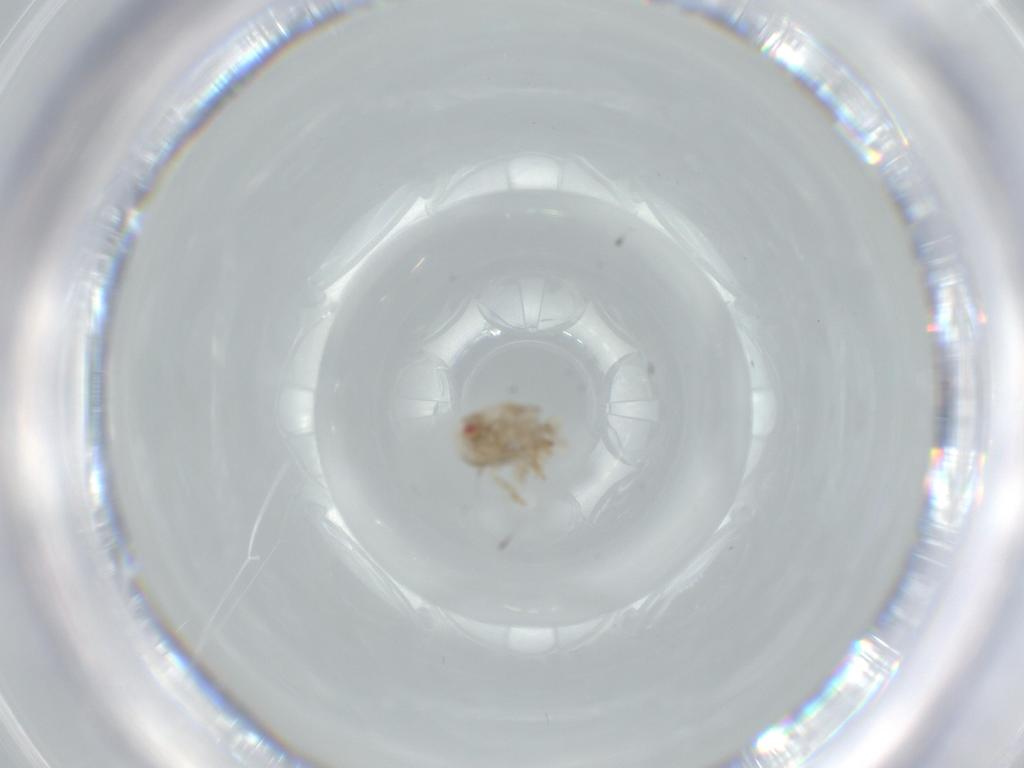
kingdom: Animalia
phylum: Arthropoda
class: Insecta
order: Hemiptera
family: Acanaloniidae
